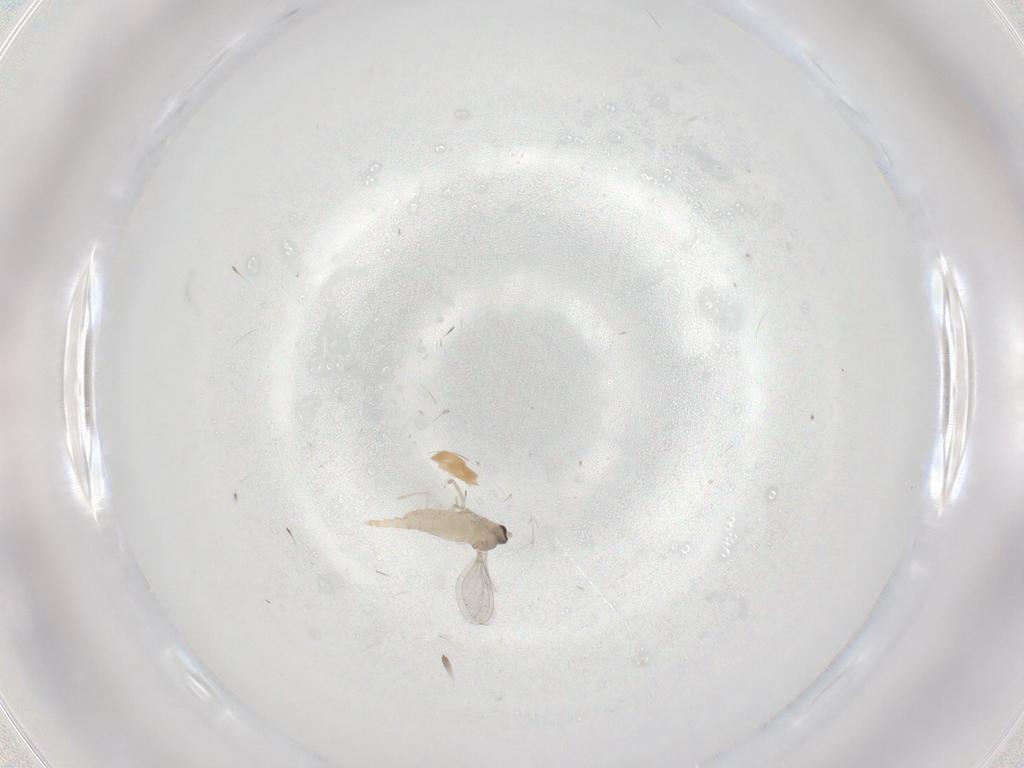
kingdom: Animalia
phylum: Arthropoda
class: Insecta
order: Diptera
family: Cecidomyiidae
